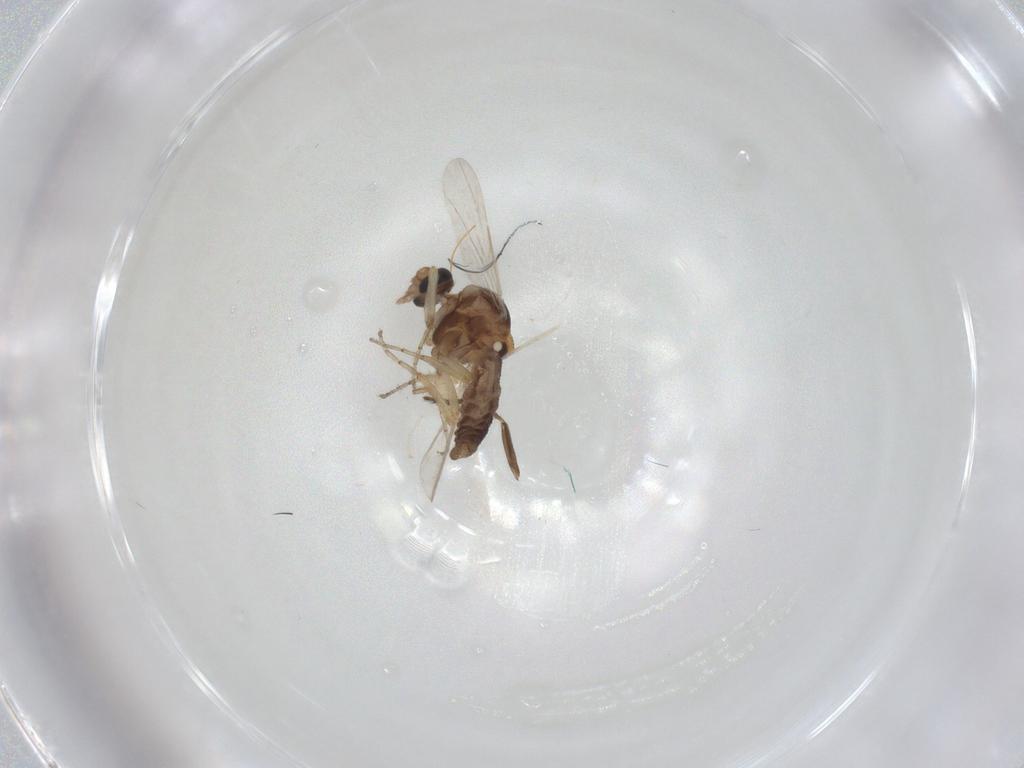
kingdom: Animalia
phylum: Arthropoda
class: Insecta
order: Diptera
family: Ceratopogonidae
